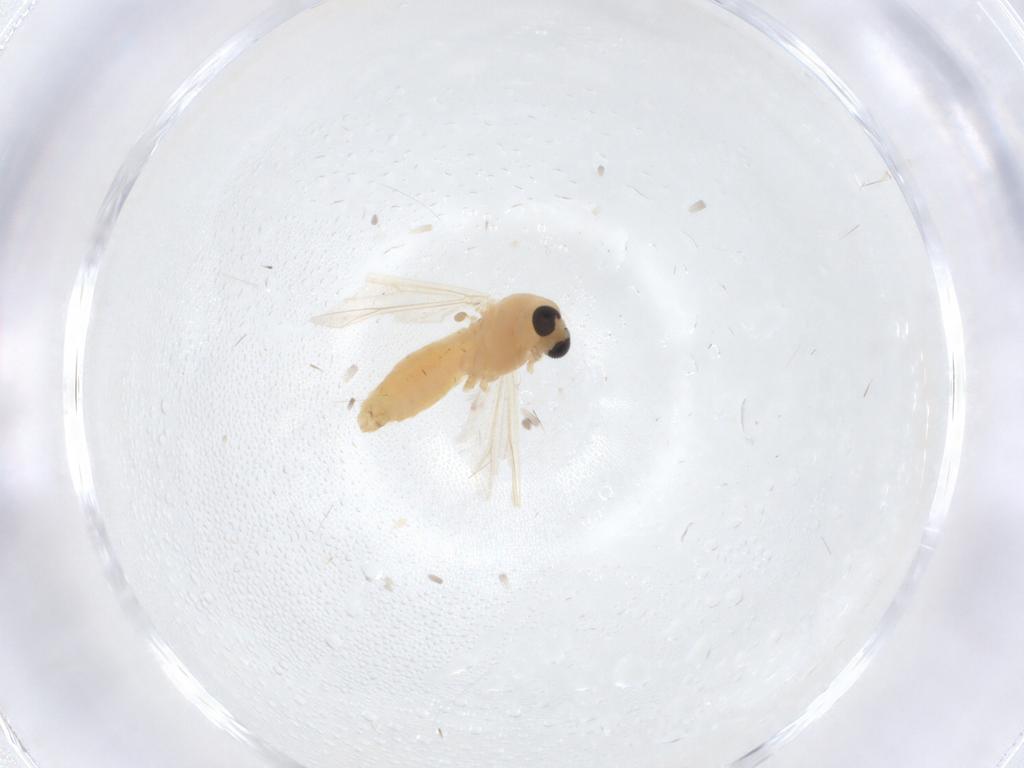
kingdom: Animalia
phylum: Arthropoda
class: Insecta
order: Diptera
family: Chironomidae
